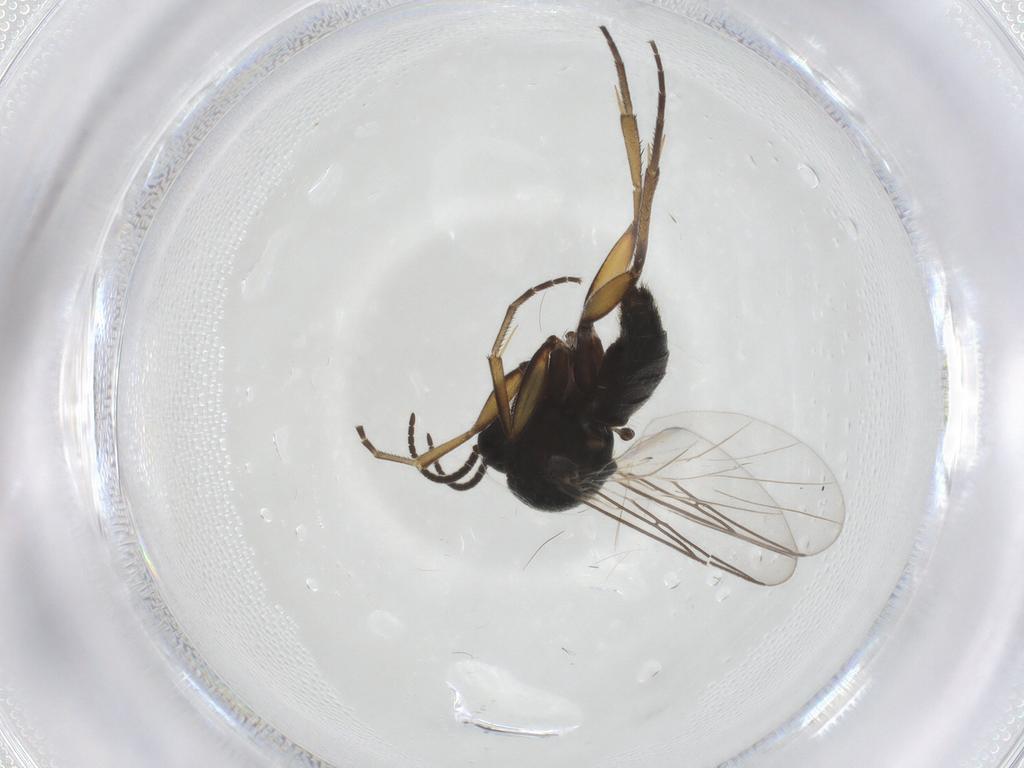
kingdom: Animalia
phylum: Arthropoda
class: Insecta
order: Diptera
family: Mycetophilidae
